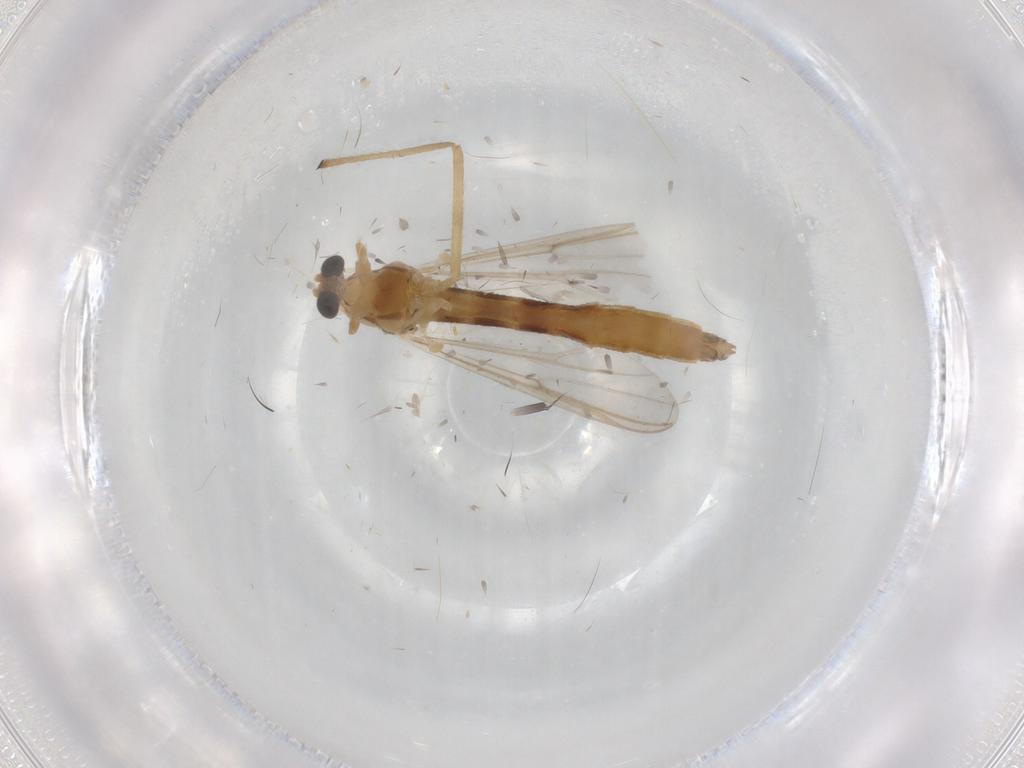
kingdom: Animalia
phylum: Arthropoda
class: Insecta
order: Diptera
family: Chironomidae
